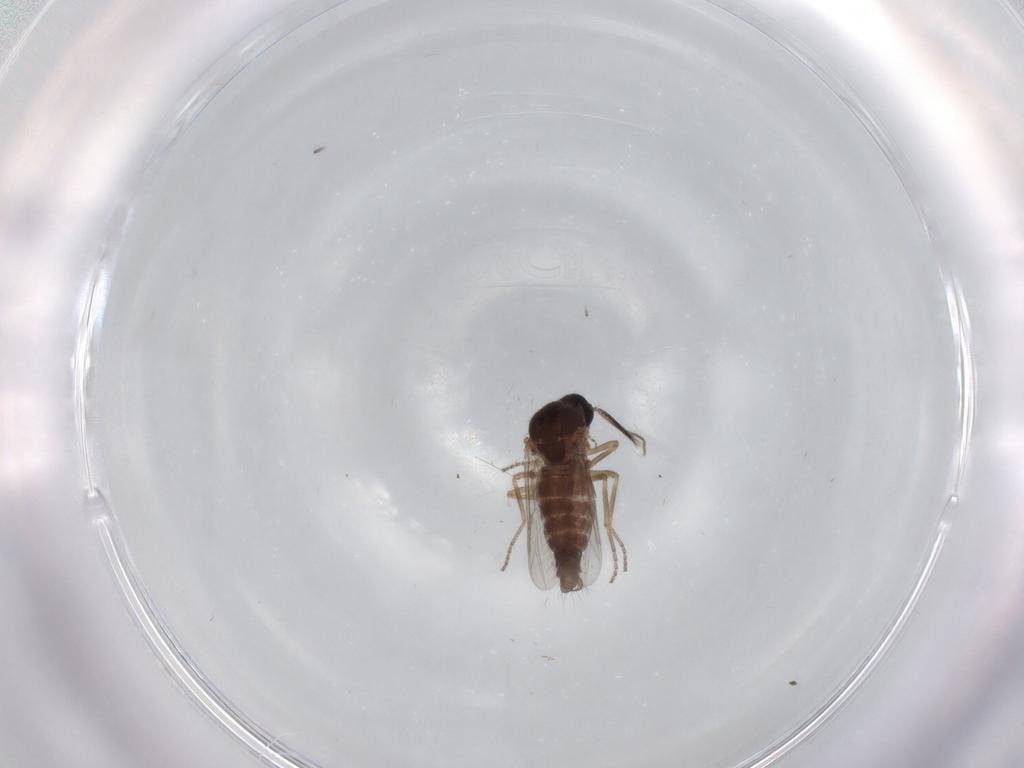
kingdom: Animalia
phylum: Arthropoda
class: Insecta
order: Diptera
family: Ceratopogonidae
